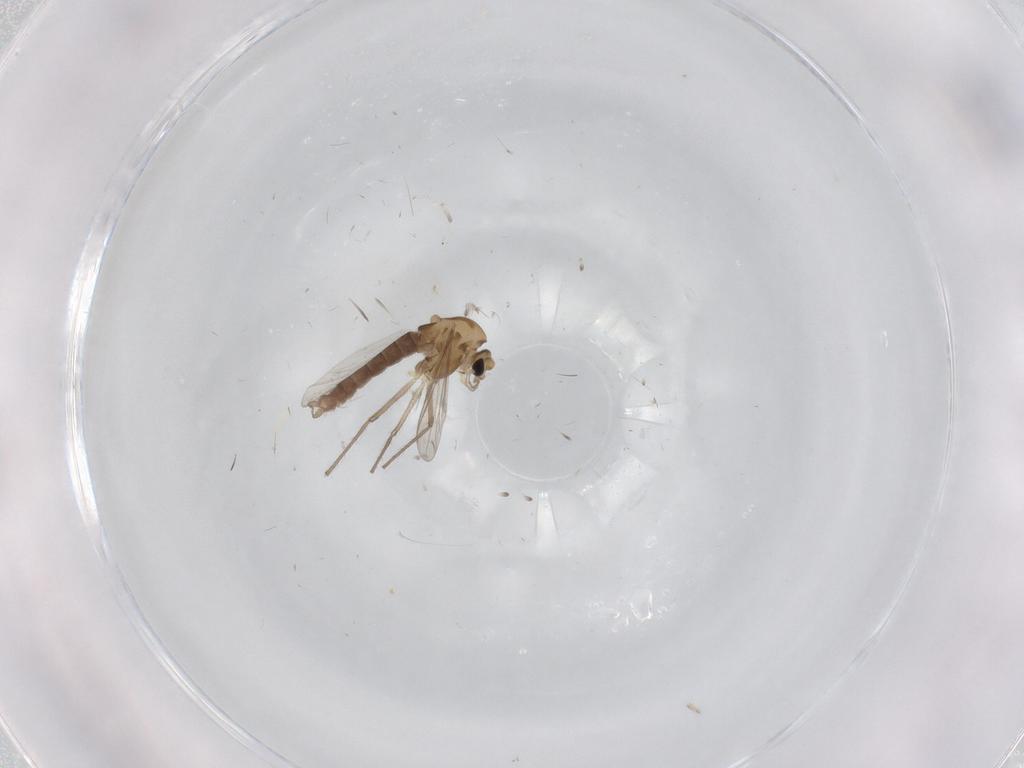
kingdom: Animalia
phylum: Arthropoda
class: Insecta
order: Diptera
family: Chironomidae
